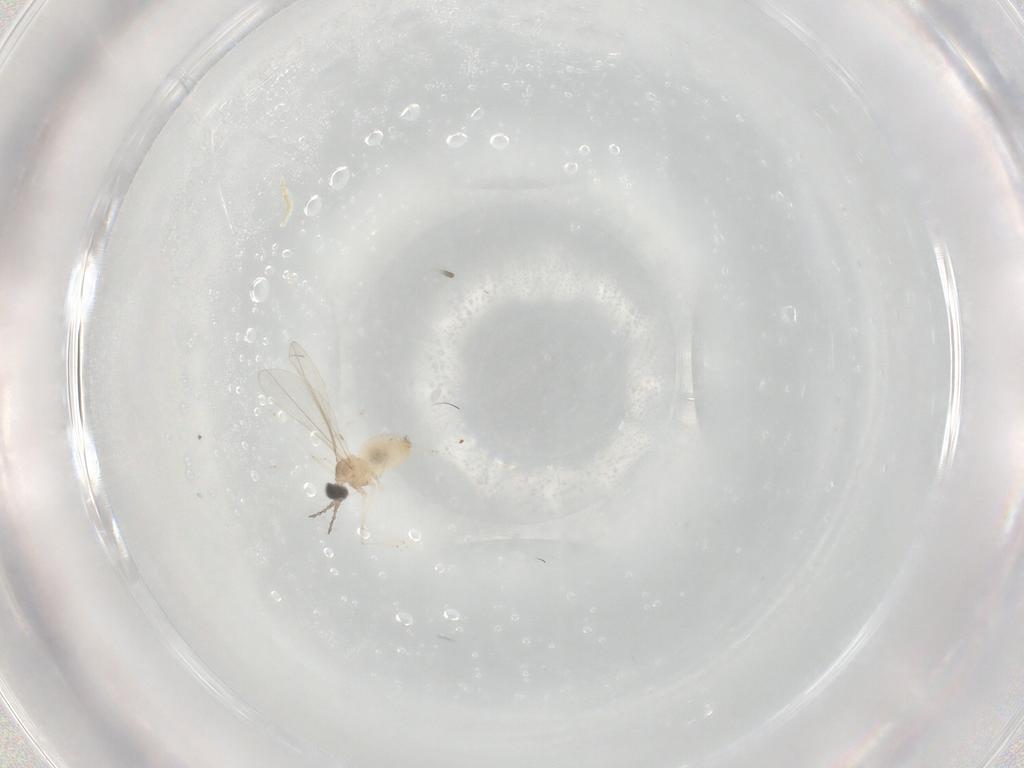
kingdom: Animalia
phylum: Arthropoda
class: Insecta
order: Diptera
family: Cecidomyiidae
